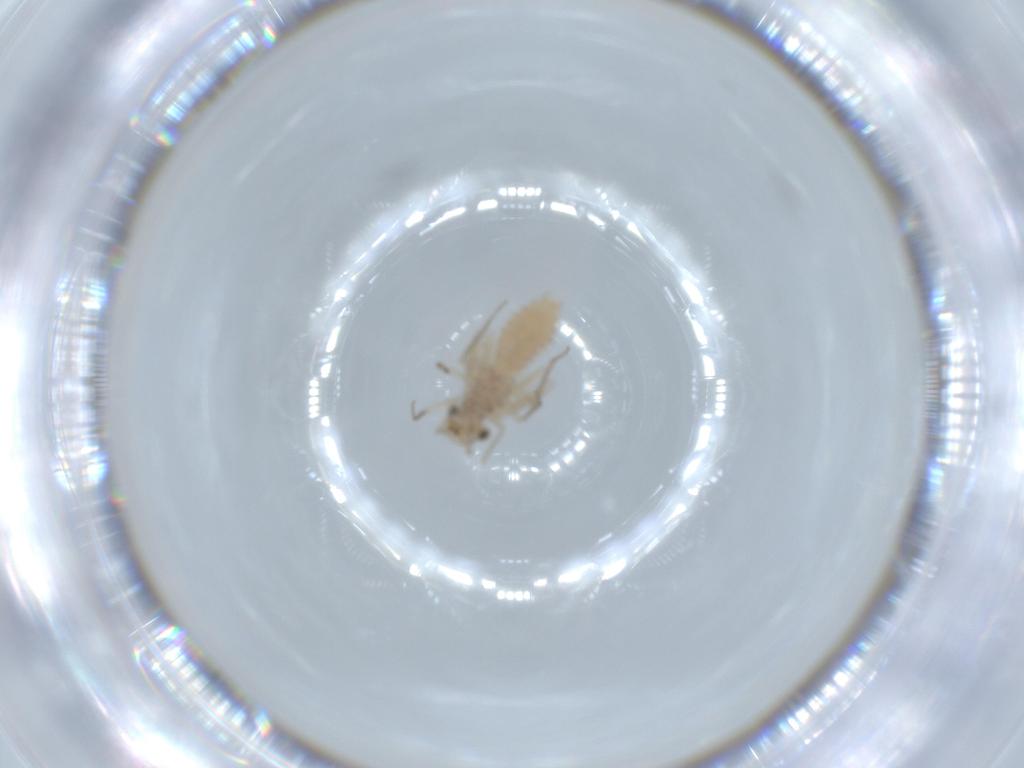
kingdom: Animalia
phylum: Arthropoda
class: Insecta
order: Psocodea
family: Lachesillidae
